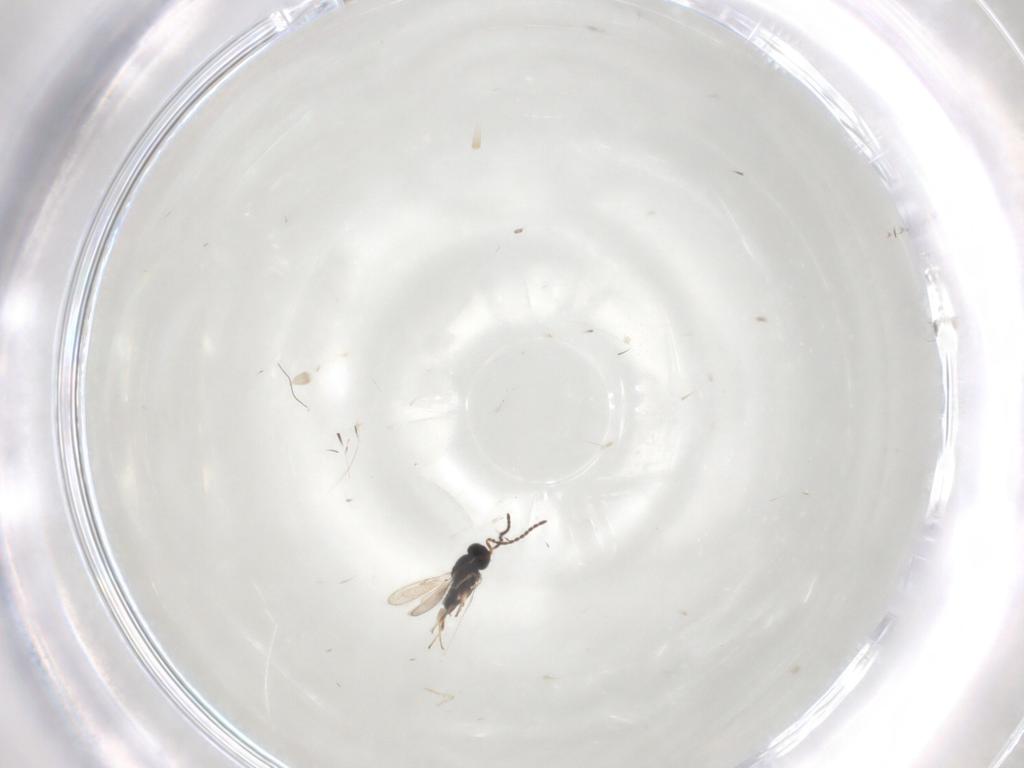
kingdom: Animalia
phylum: Arthropoda
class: Insecta
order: Hymenoptera
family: Scelionidae
